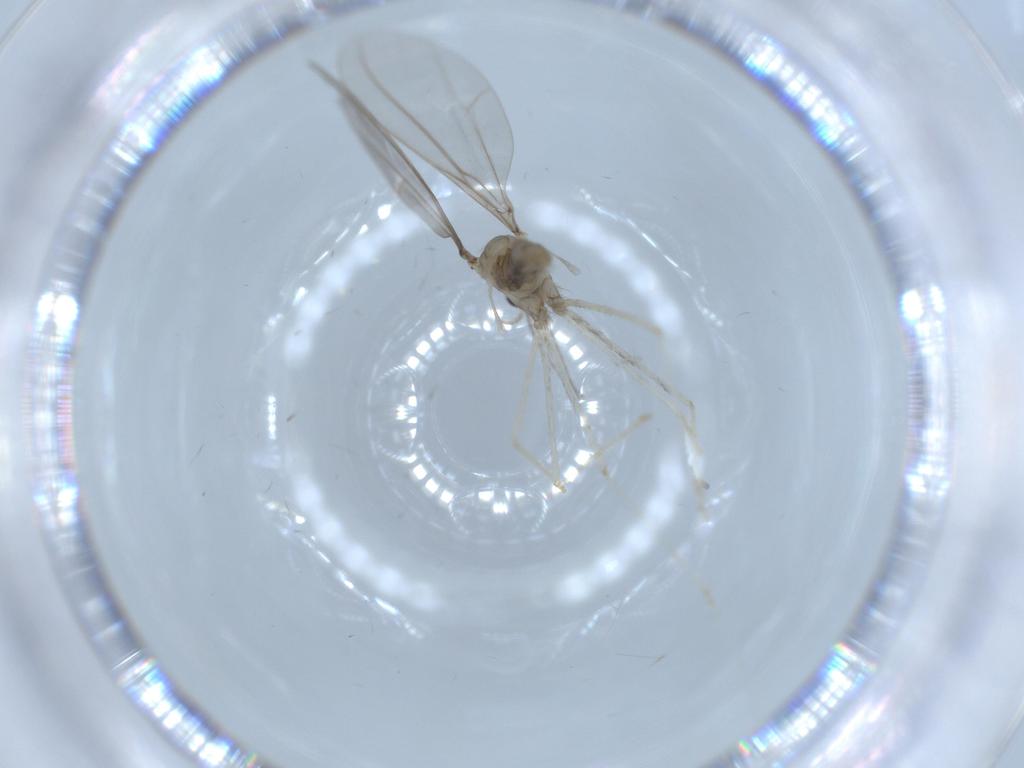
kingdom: Animalia
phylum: Arthropoda
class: Insecta
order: Diptera
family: Cecidomyiidae
